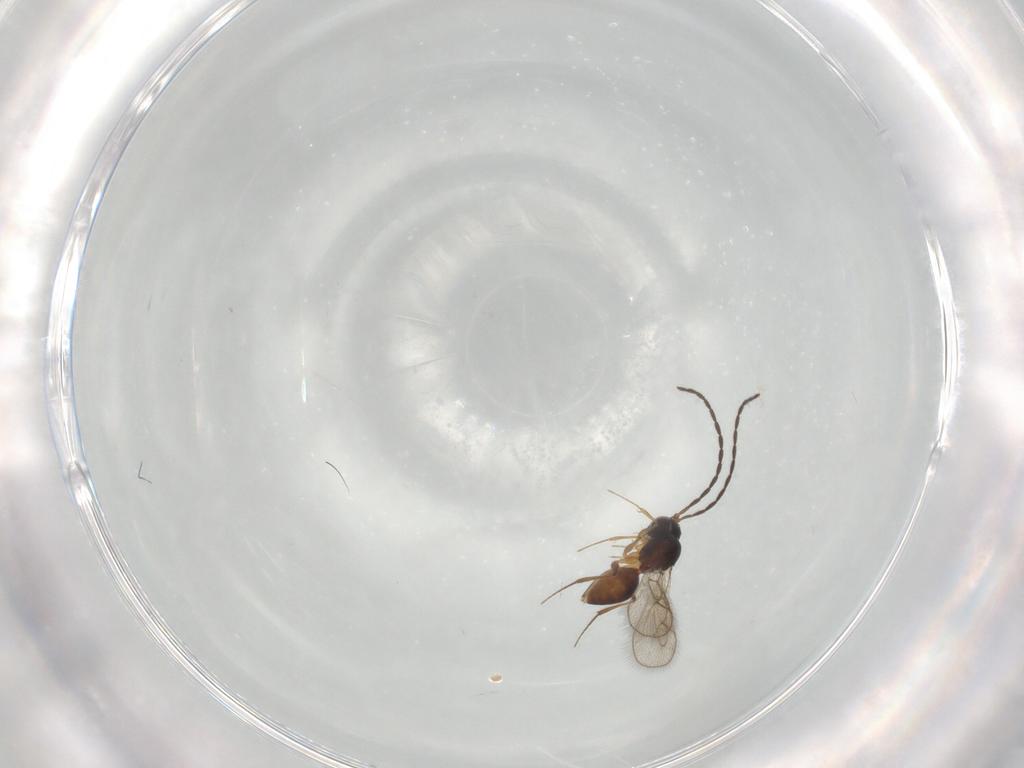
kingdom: Animalia
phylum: Arthropoda
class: Insecta
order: Hymenoptera
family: Figitidae
